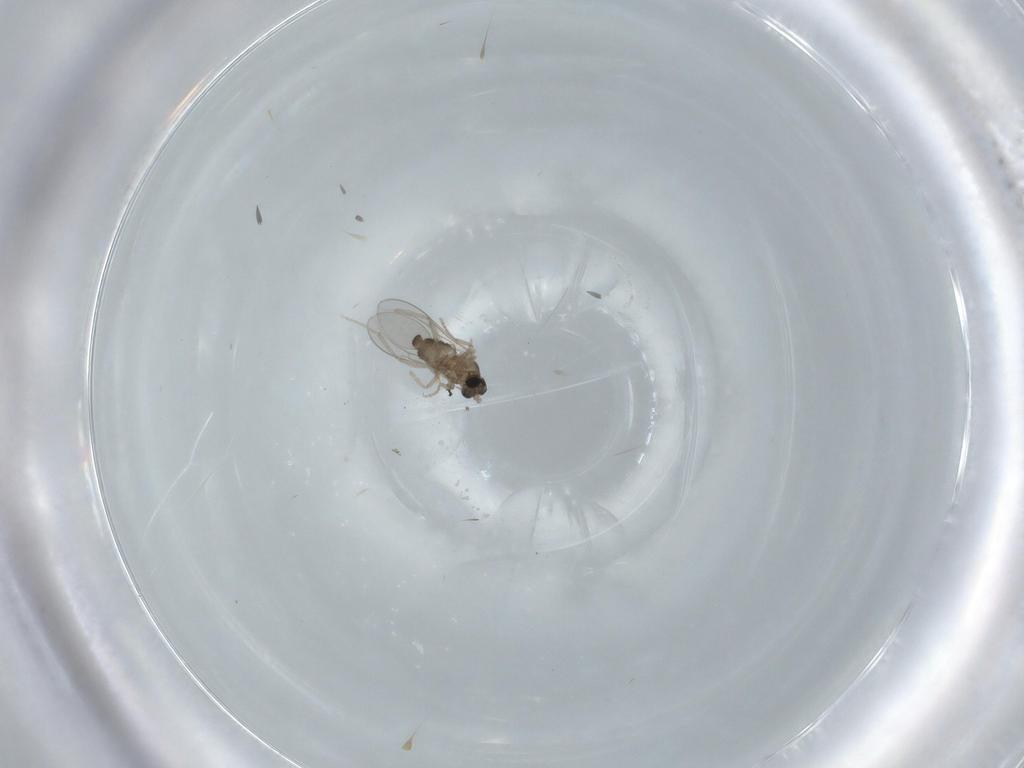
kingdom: Animalia
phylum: Arthropoda
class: Insecta
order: Diptera
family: Cecidomyiidae
